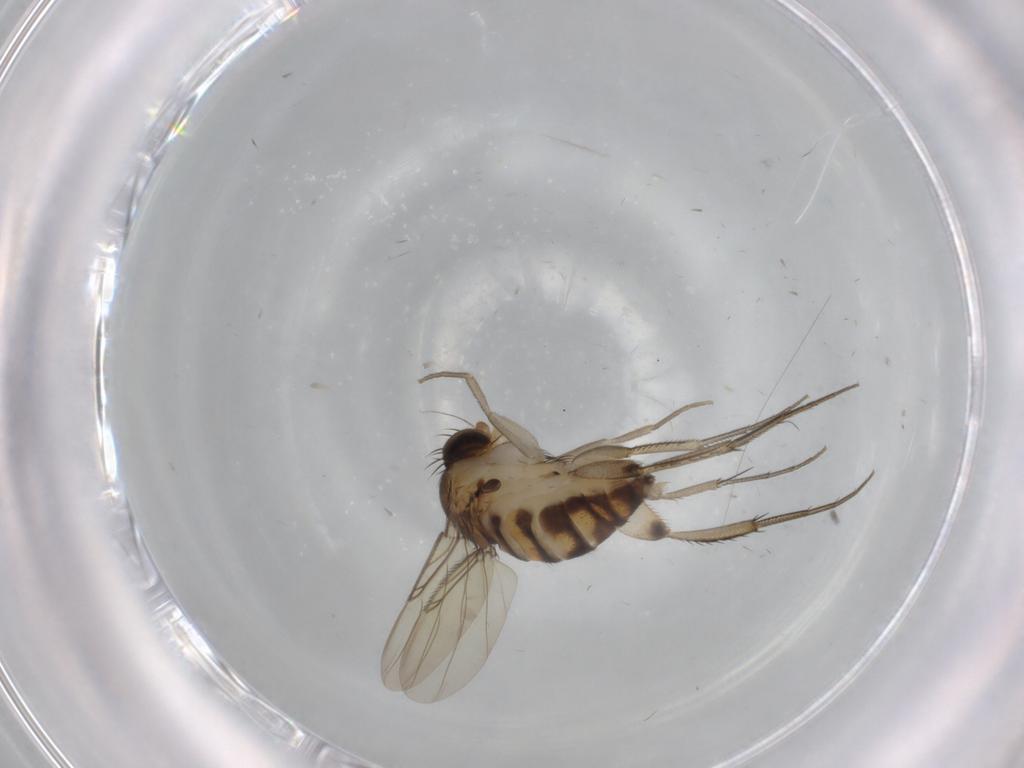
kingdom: Animalia
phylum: Arthropoda
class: Insecta
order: Diptera
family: Phoridae
